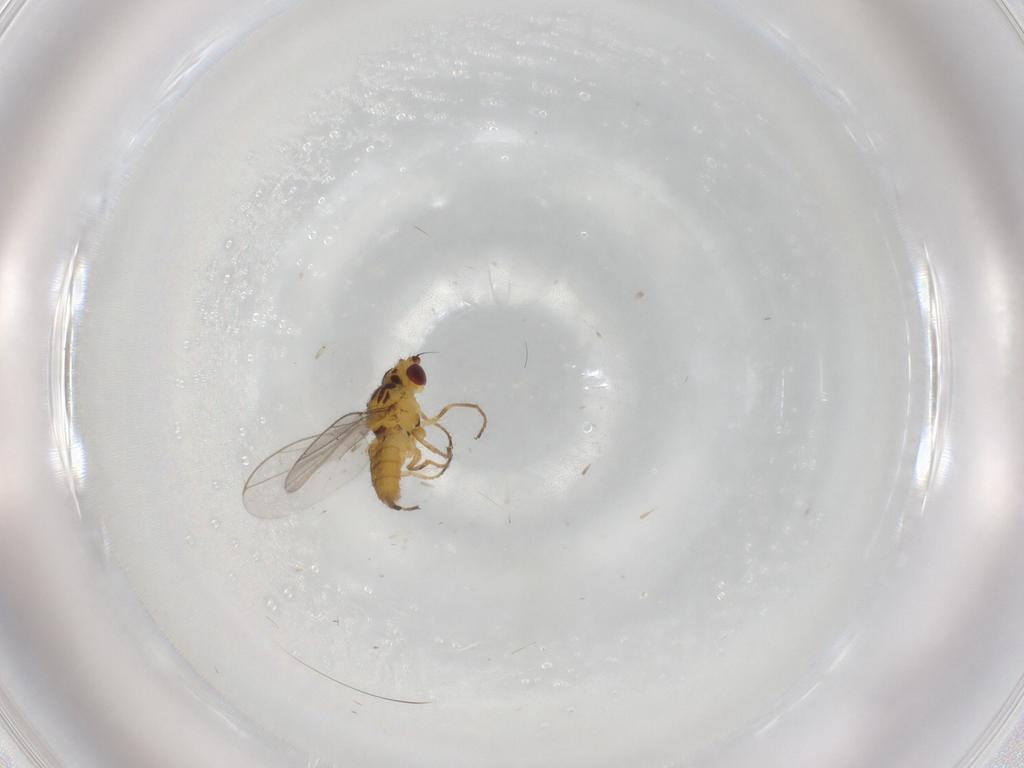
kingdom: Animalia
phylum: Arthropoda
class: Insecta
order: Diptera
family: Chloropidae
